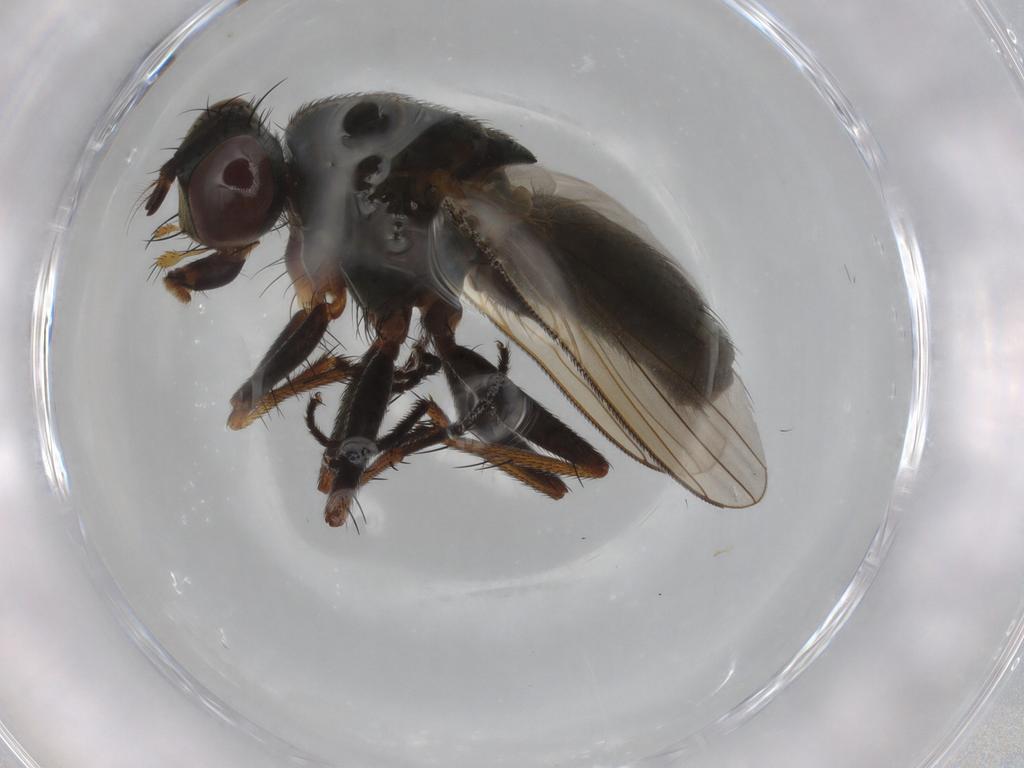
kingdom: Animalia
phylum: Arthropoda
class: Insecta
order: Diptera
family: Muscidae
